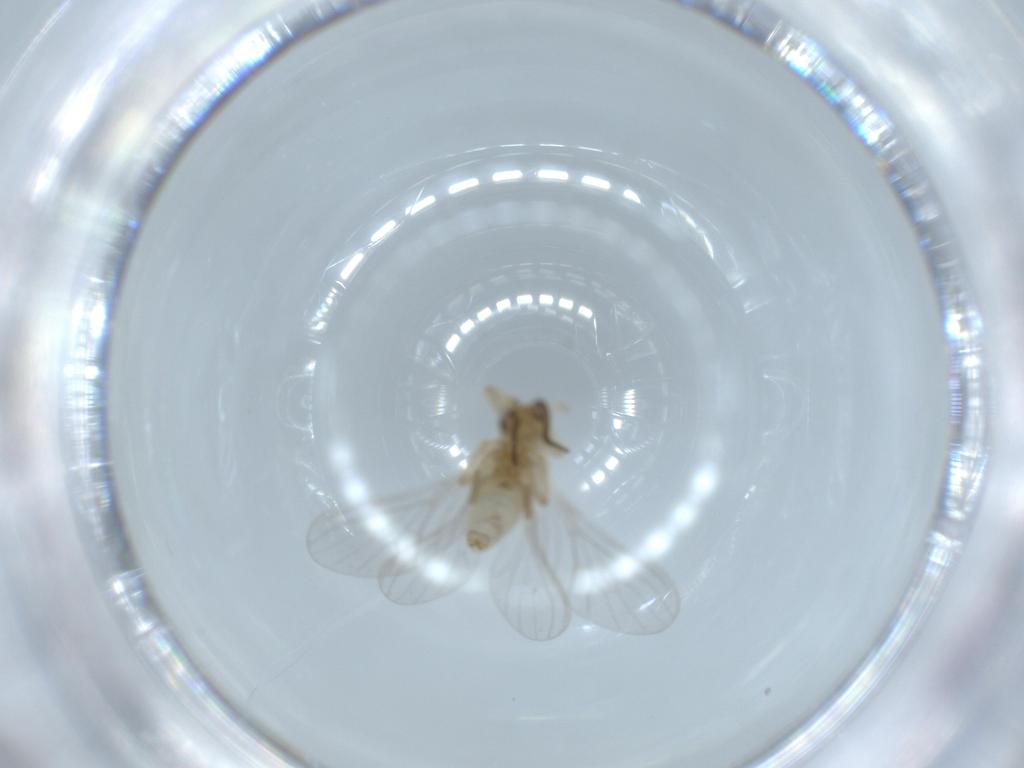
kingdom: Animalia
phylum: Arthropoda
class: Insecta
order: Neuroptera
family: Coniopterygidae
